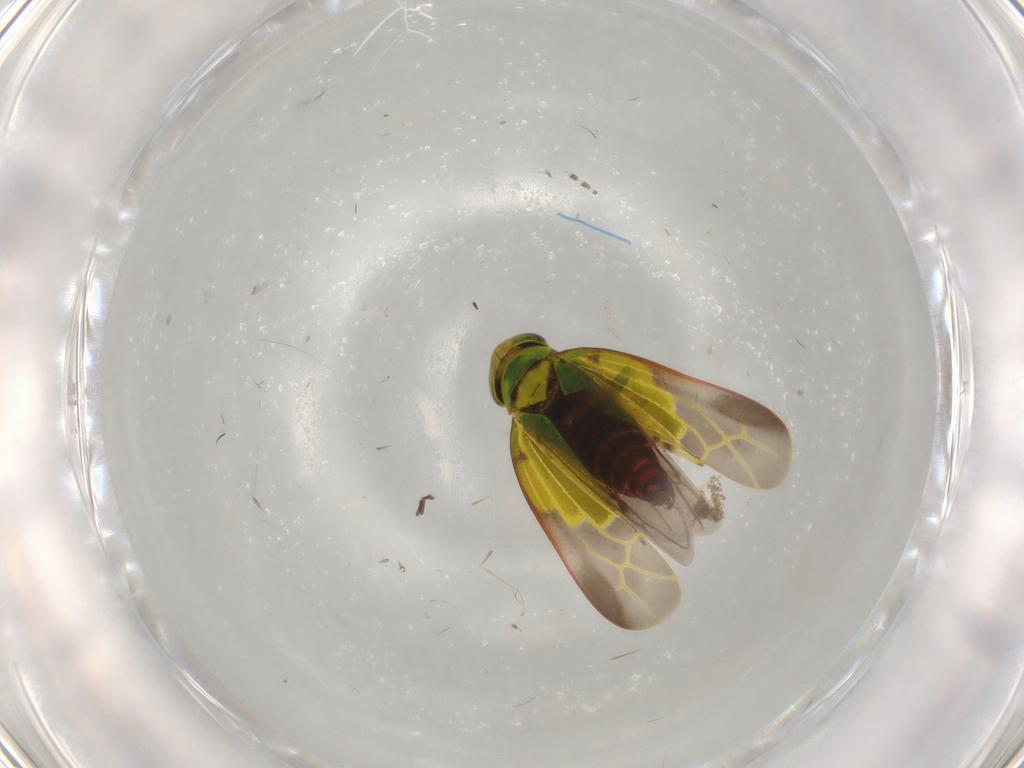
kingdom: Animalia
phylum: Arthropoda
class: Insecta
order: Hemiptera
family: Cicadellidae
